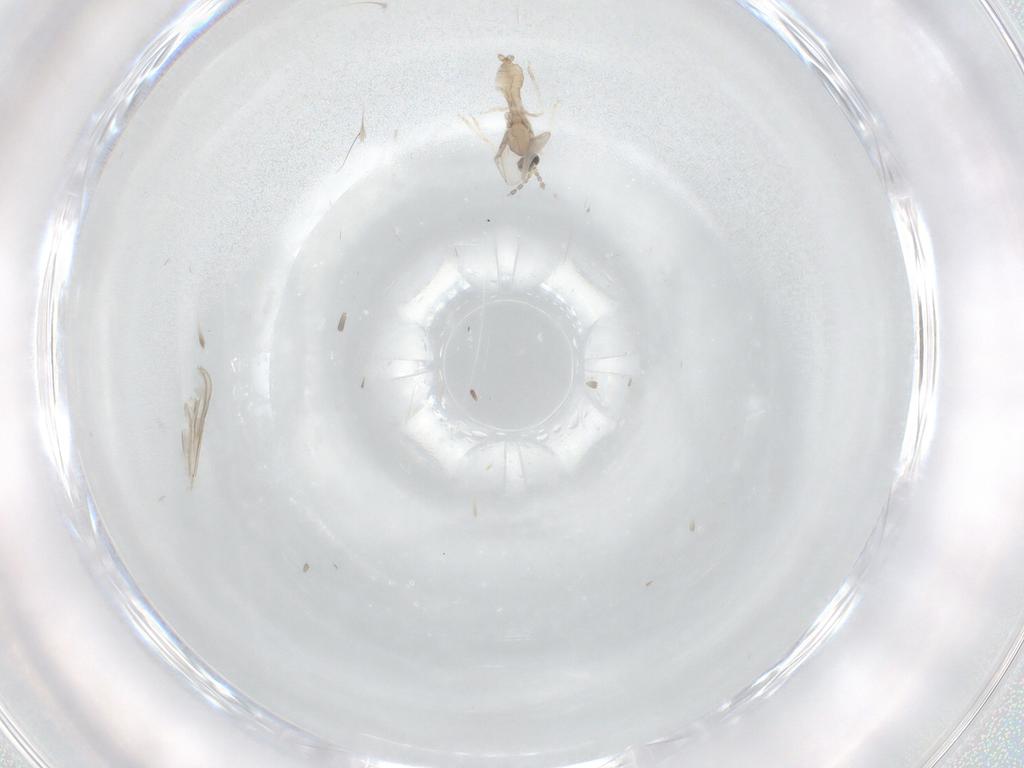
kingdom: Animalia
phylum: Arthropoda
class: Insecta
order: Diptera
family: Psychodidae
